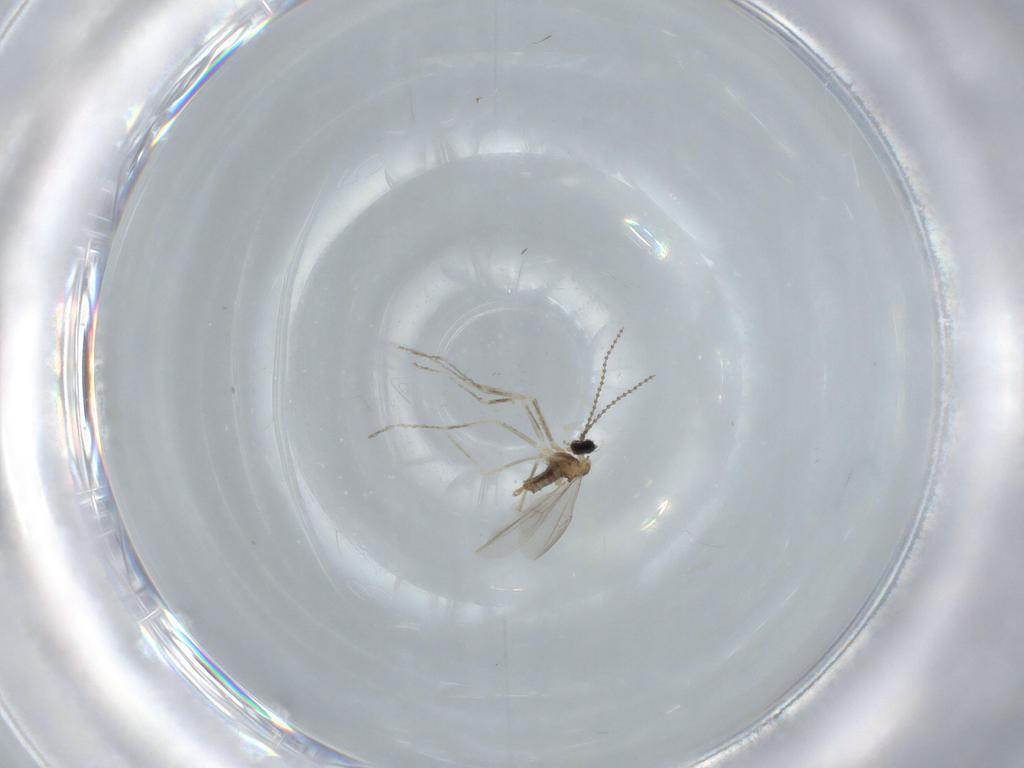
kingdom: Animalia
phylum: Arthropoda
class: Insecta
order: Diptera
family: Cecidomyiidae
